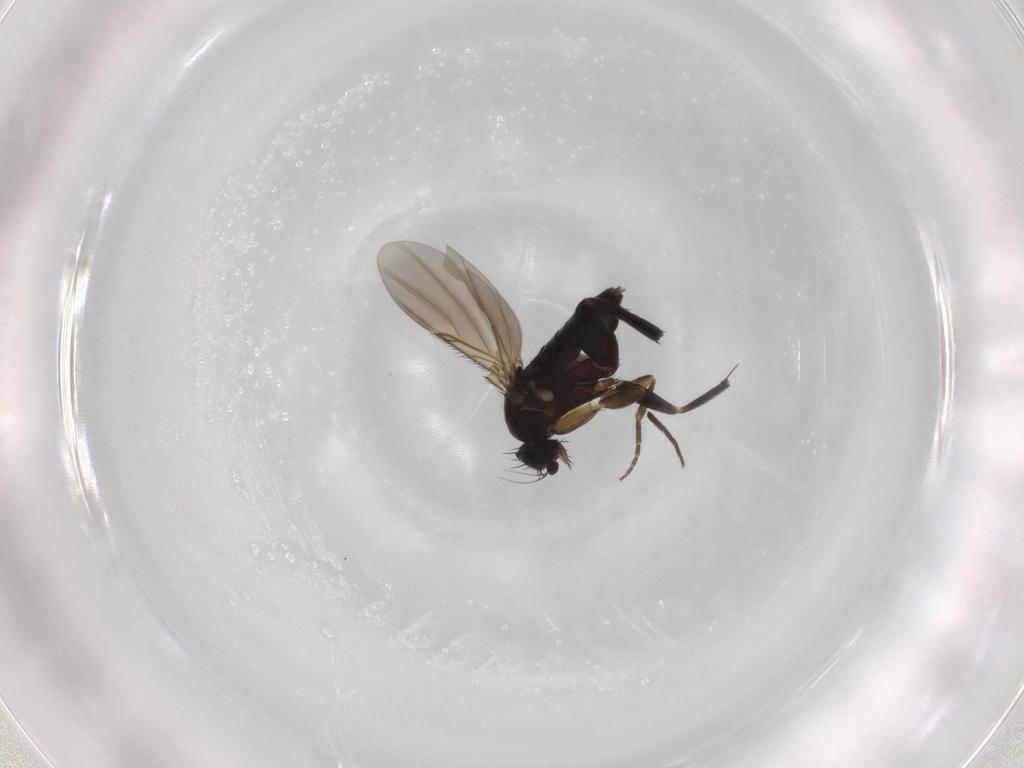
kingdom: Animalia
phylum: Arthropoda
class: Insecta
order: Diptera
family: Phoridae
